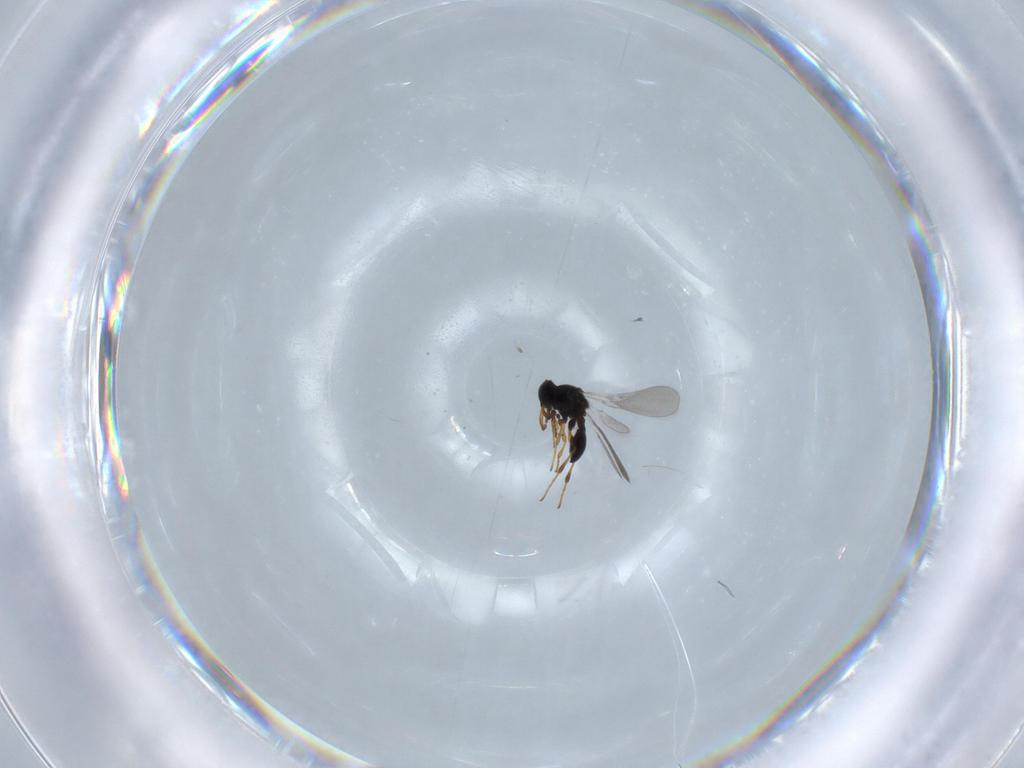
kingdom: Animalia
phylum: Arthropoda
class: Insecta
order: Hymenoptera
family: Platygastridae
